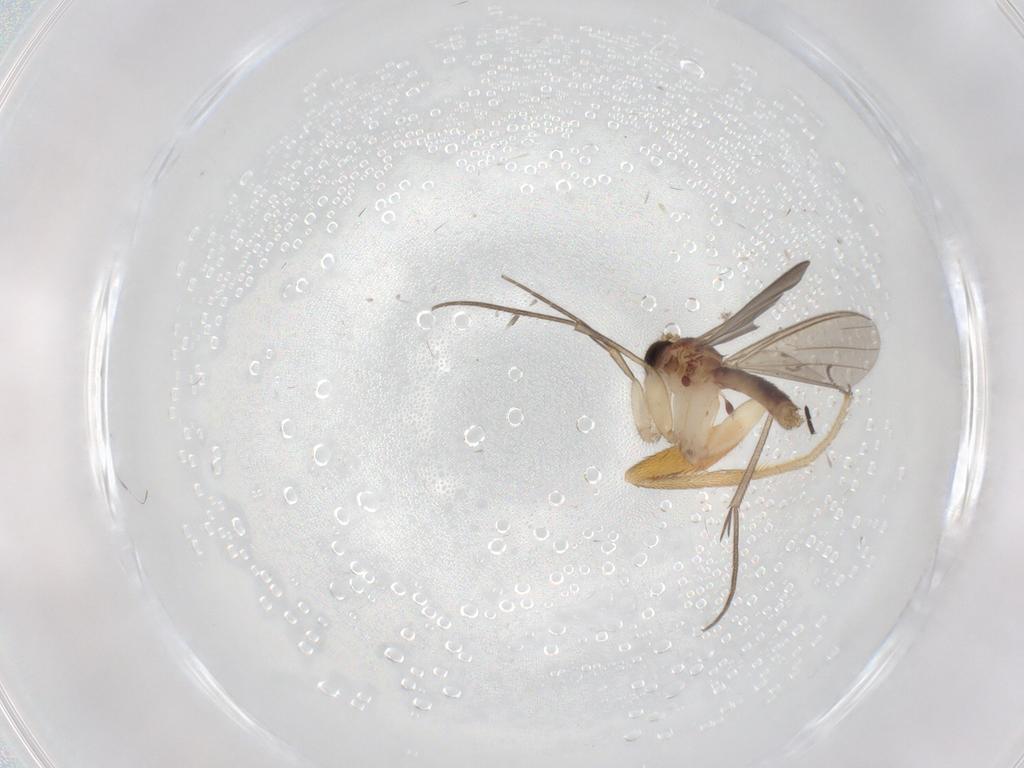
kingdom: Animalia
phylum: Arthropoda
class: Insecta
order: Diptera
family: Mycetophilidae
